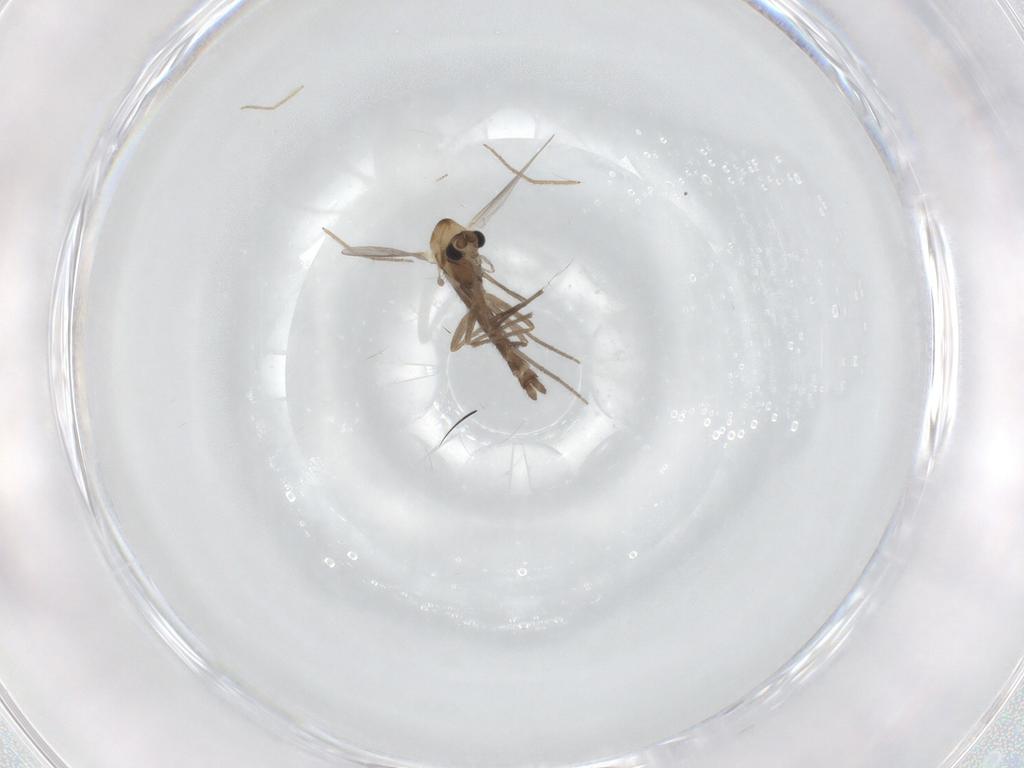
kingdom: Animalia
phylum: Arthropoda
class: Insecta
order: Diptera
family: Chironomidae
